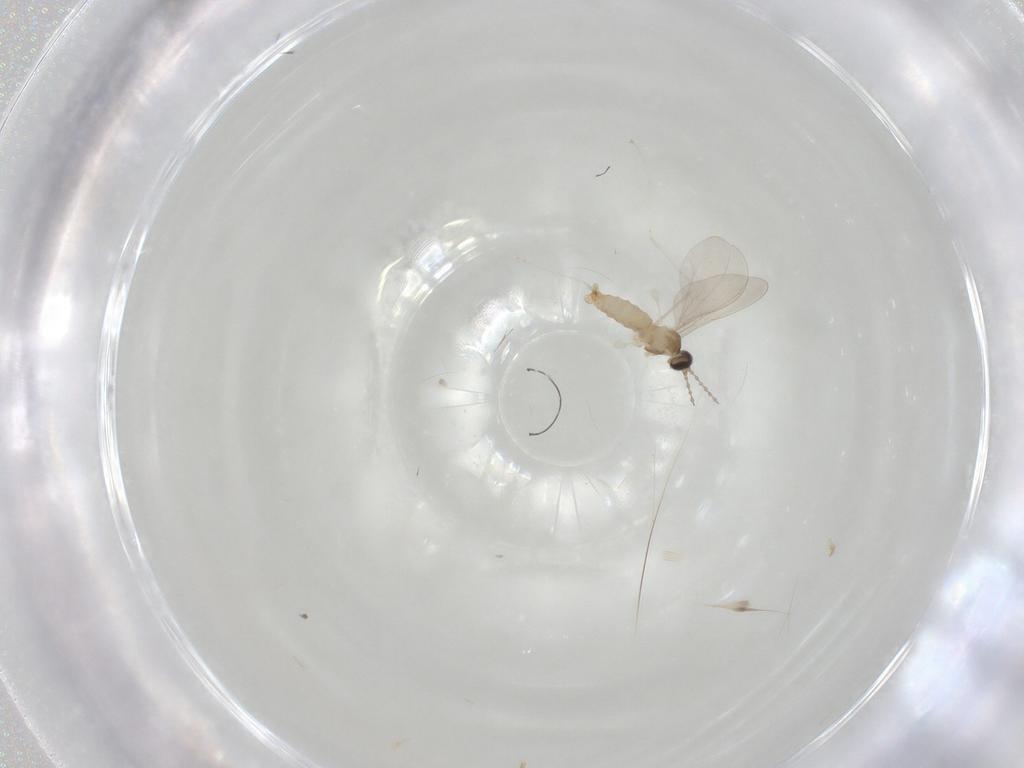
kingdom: Animalia
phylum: Arthropoda
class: Insecta
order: Diptera
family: Cecidomyiidae
